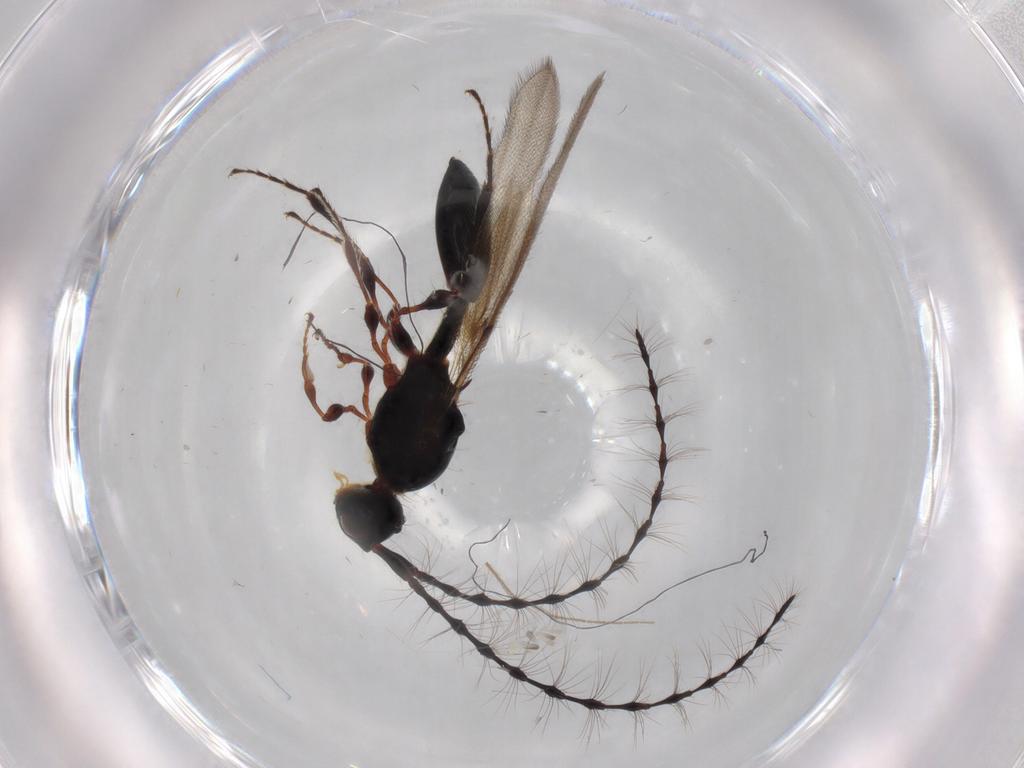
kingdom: Animalia
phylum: Arthropoda
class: Insecta
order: Hymenoptera
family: Diapriidae
